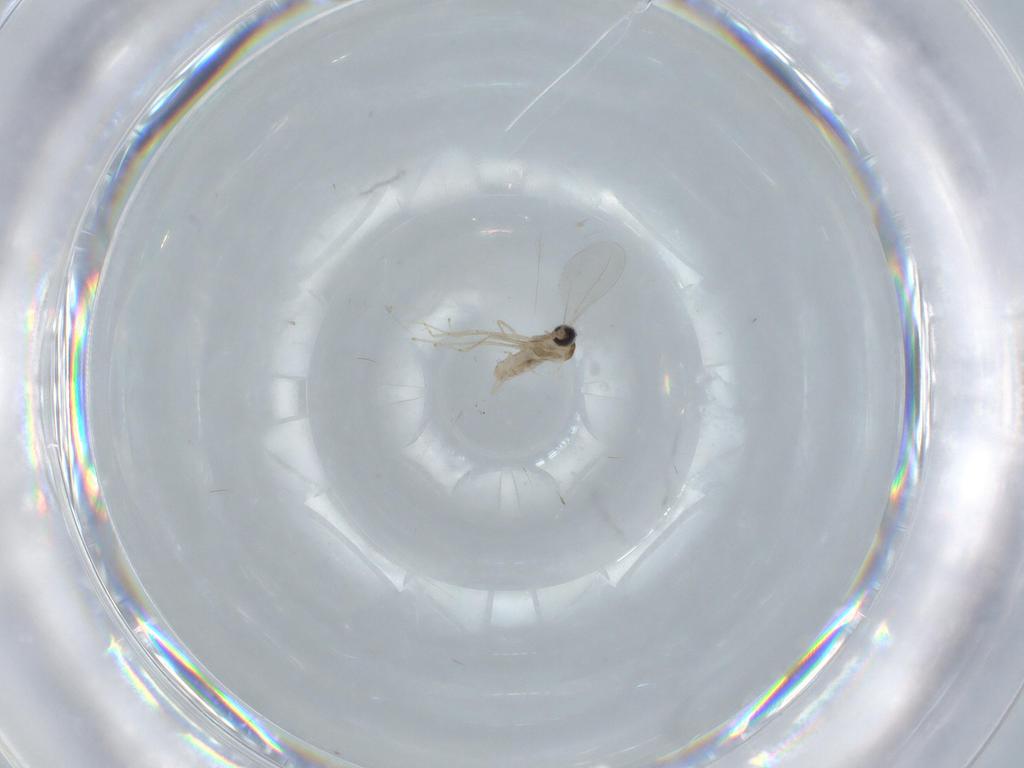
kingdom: Animalia
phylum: Arthropoda
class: Insecta
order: Diptera
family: Cecidomyiidae
